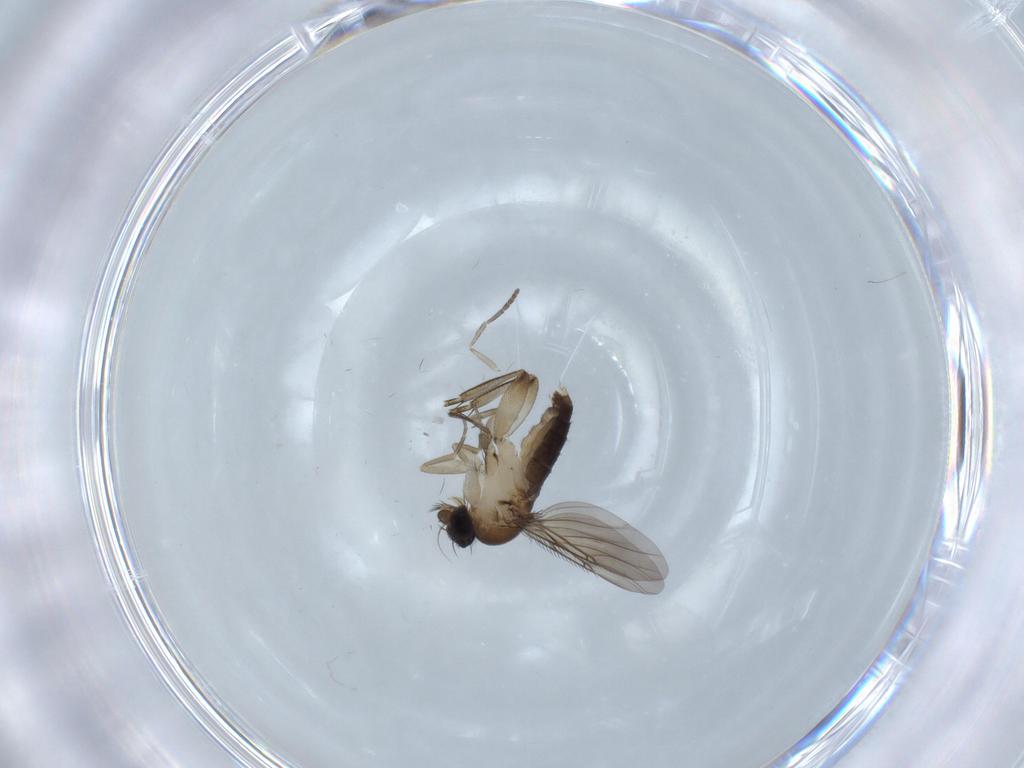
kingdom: Animalia
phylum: Arthropoda
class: Insecta
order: Diptera
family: Phoridae
